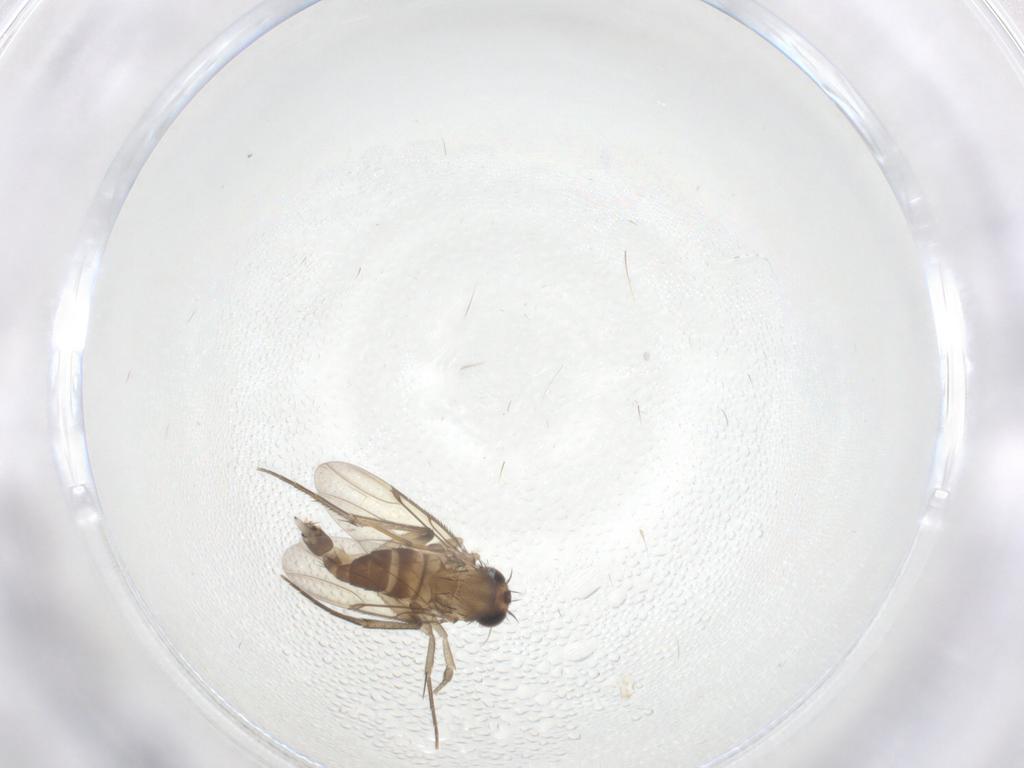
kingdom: Animalia
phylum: Arthropoda
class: Insecta
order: Diptera
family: Phoridae
